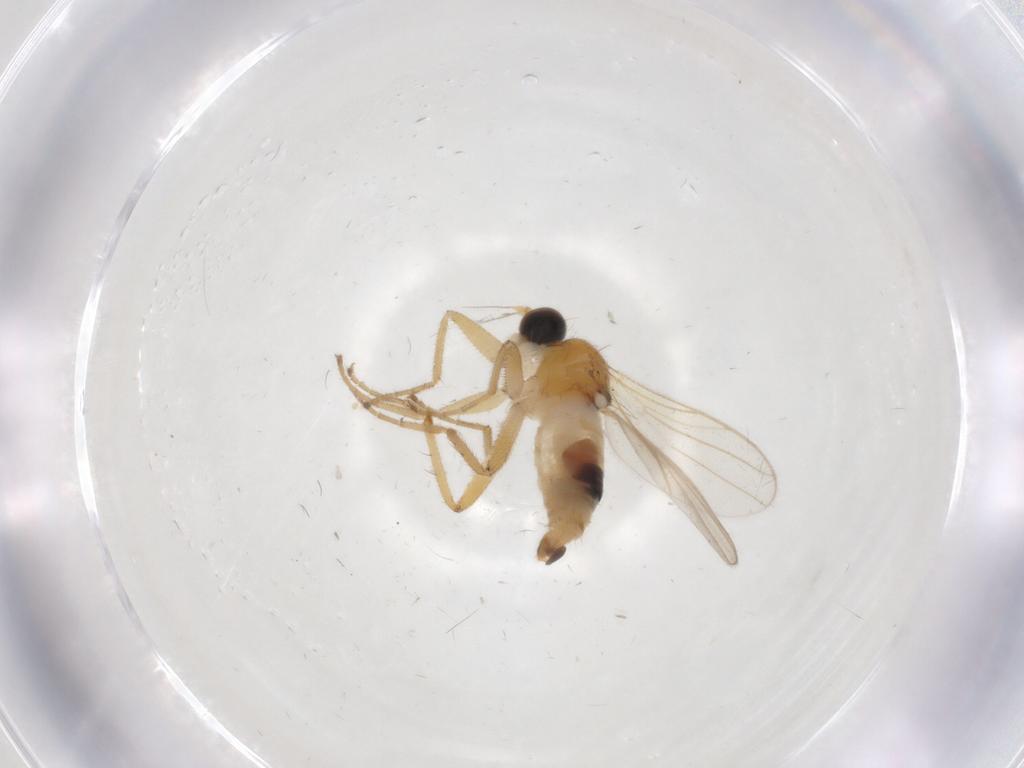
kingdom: Animalia
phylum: Arthropoda
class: Insecta
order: Diptera
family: Hybotidae
